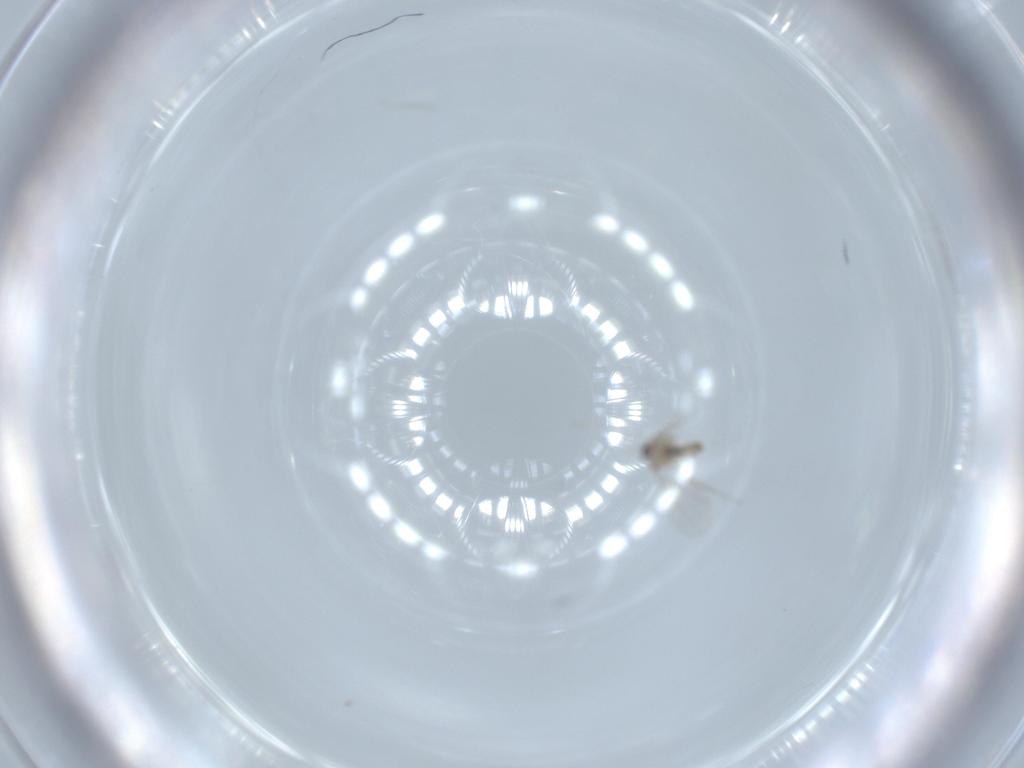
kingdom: Animalia
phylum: Arthropoda
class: Insecta
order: Diptera
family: Cecidomyiidae
